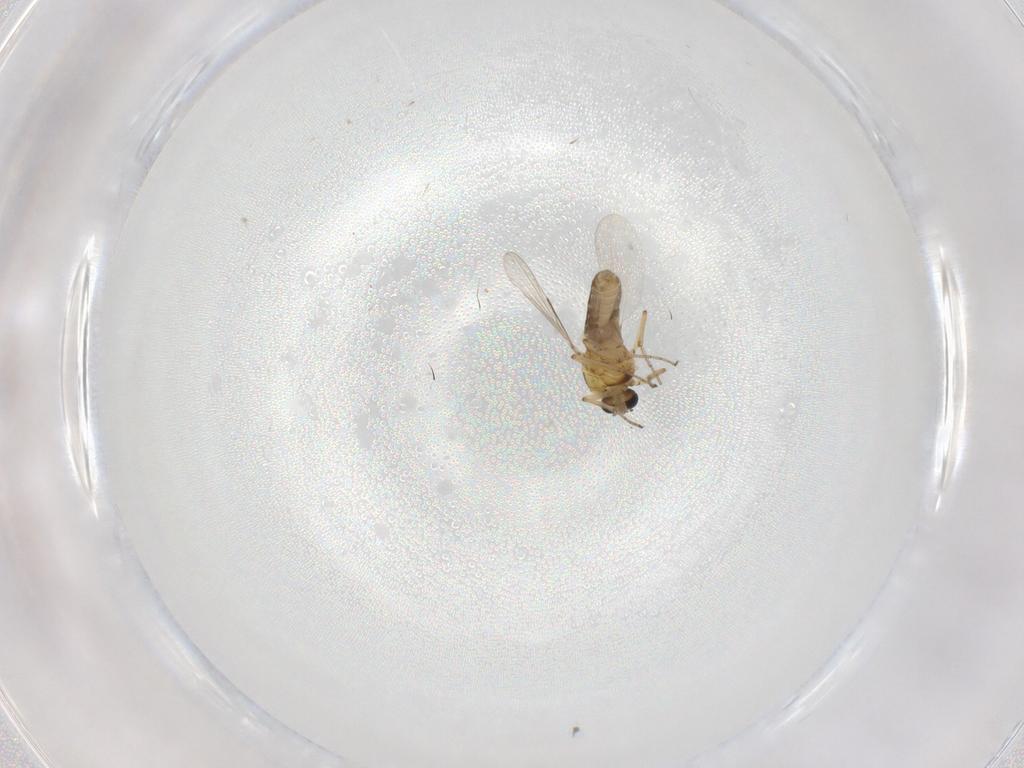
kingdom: Animalia
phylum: Arthropoda
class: Insecta
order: Diptera
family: Ceratopogonidae
